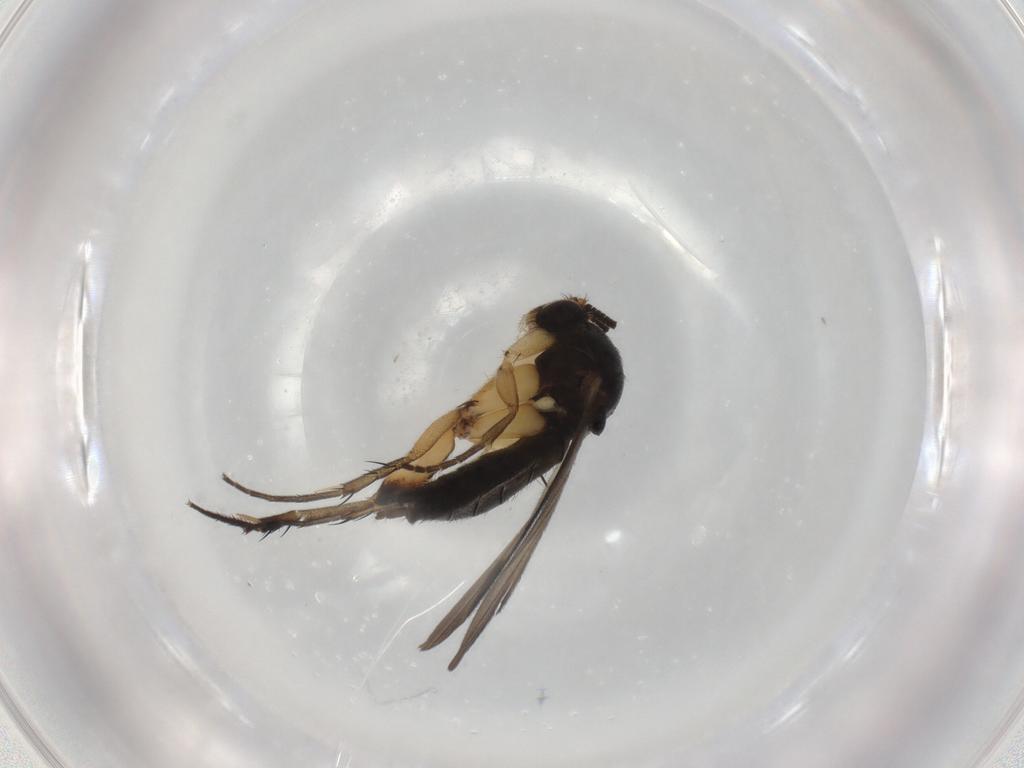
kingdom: Animalia
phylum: Arthropoda
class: Insecta
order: Diptera
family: Mycetophilidae
